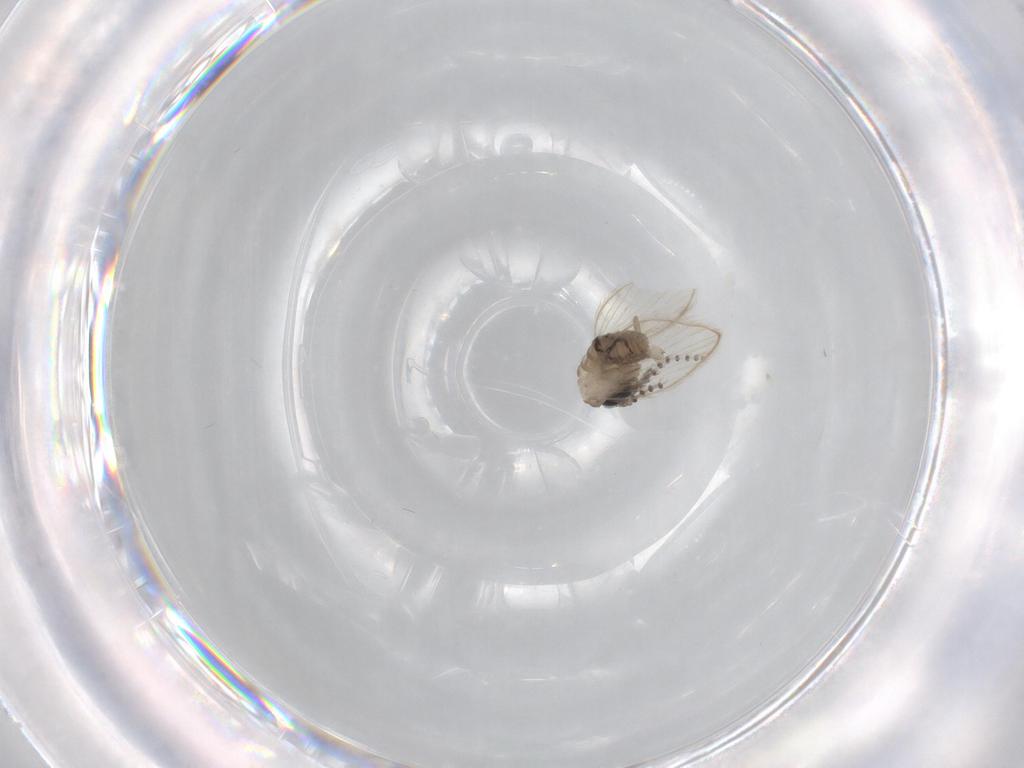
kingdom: Animalia
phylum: Arthropoda
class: Insecta
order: Diptera
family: Psychodidae
